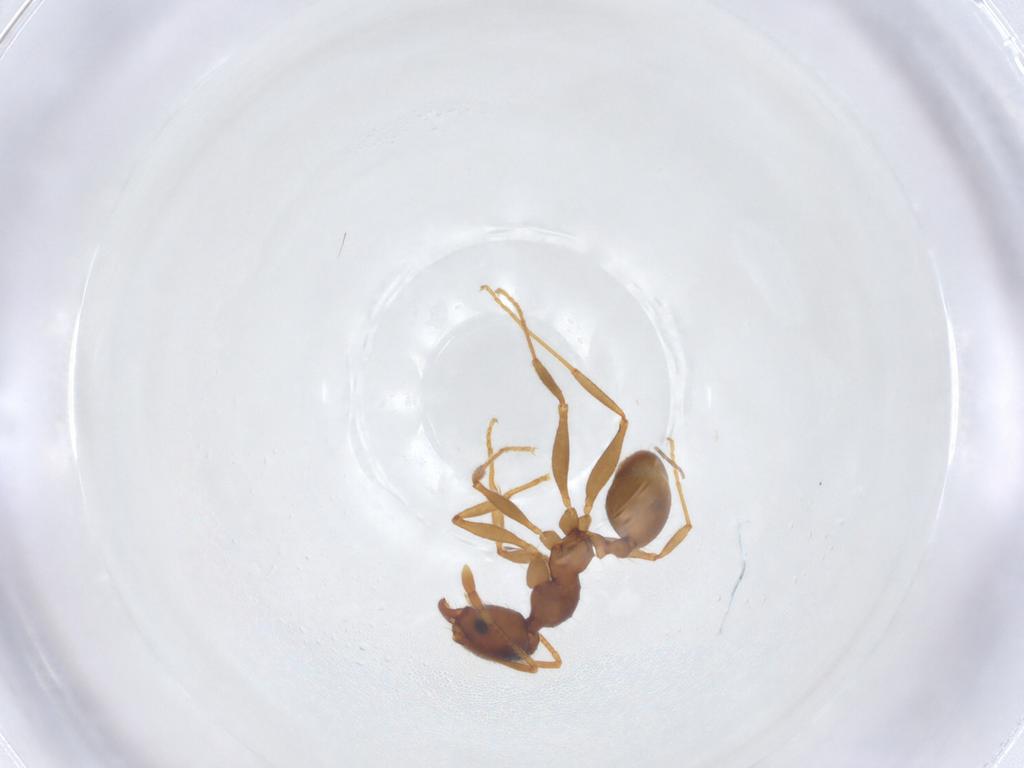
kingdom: Animalia
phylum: Arthropoda
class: Insecta
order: Hymenoptera
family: Formicidae
